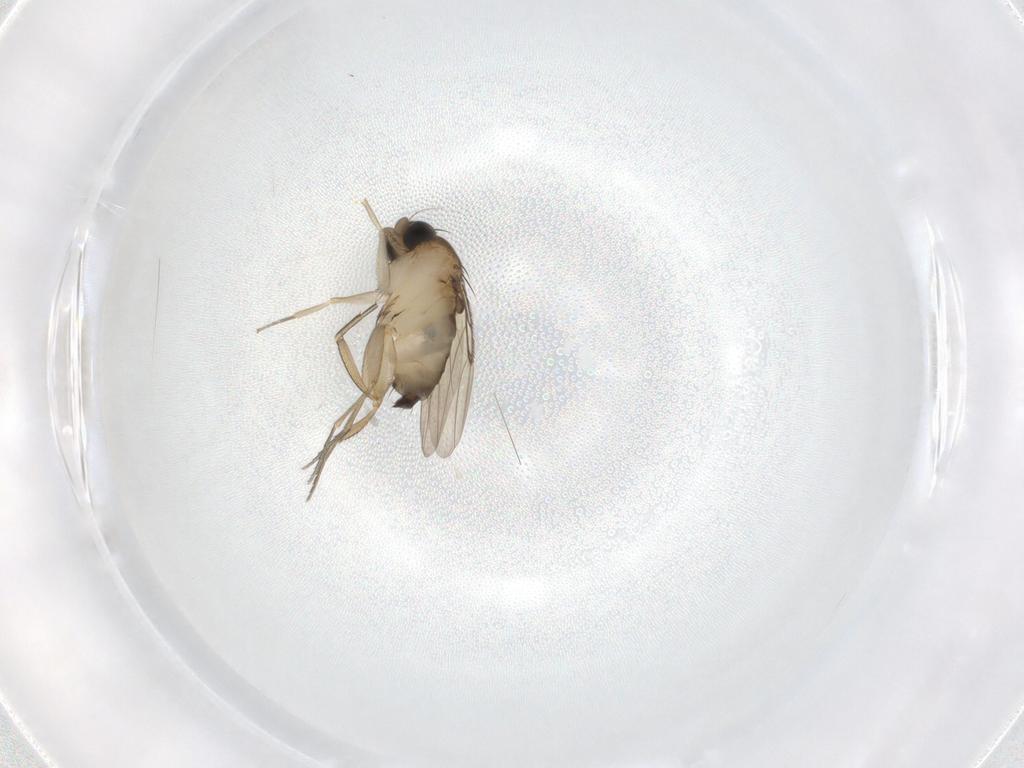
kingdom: Animalia
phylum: Arthropoda
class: Insecta
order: Diptera
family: Phoridae
